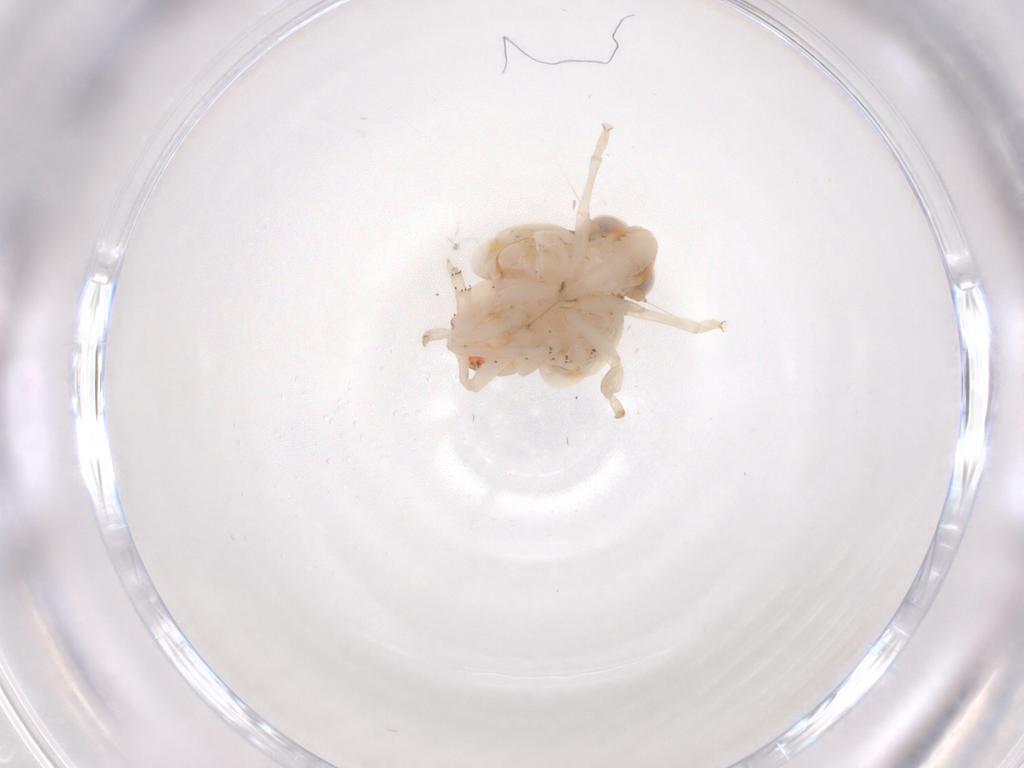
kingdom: Animalia
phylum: Arthropoda
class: Insecta
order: Hemiptera
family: Nogodinidae
